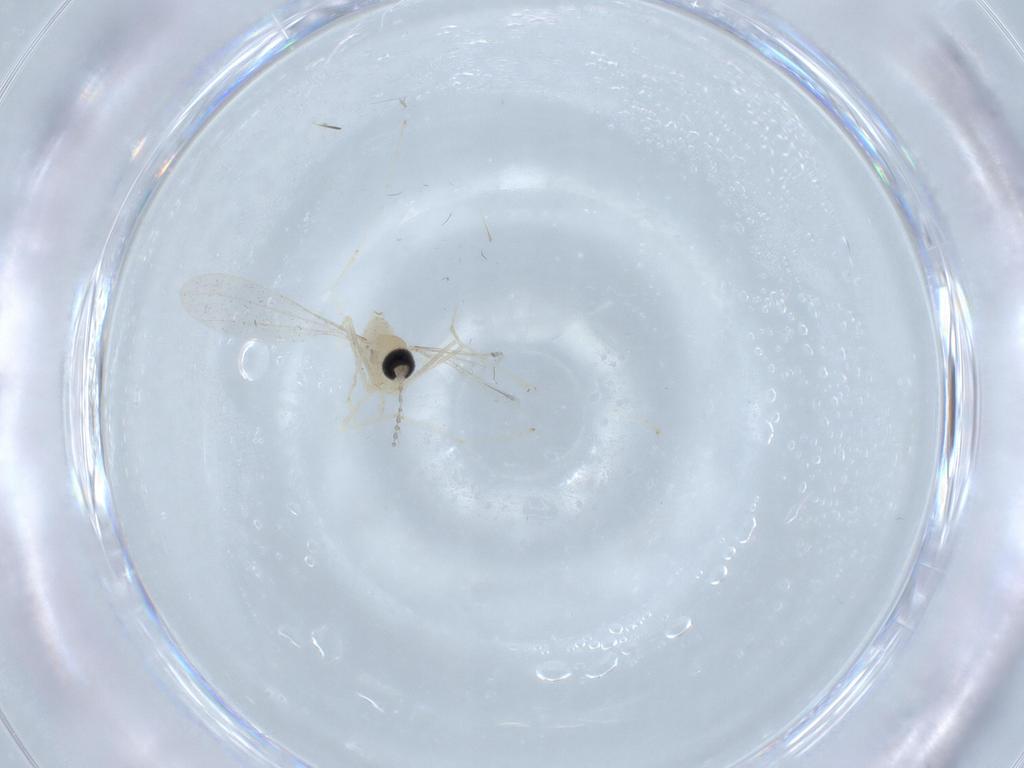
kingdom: Animalia
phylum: Arthropoda
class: Insecta
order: Diptera
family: Cecidomyiidae
